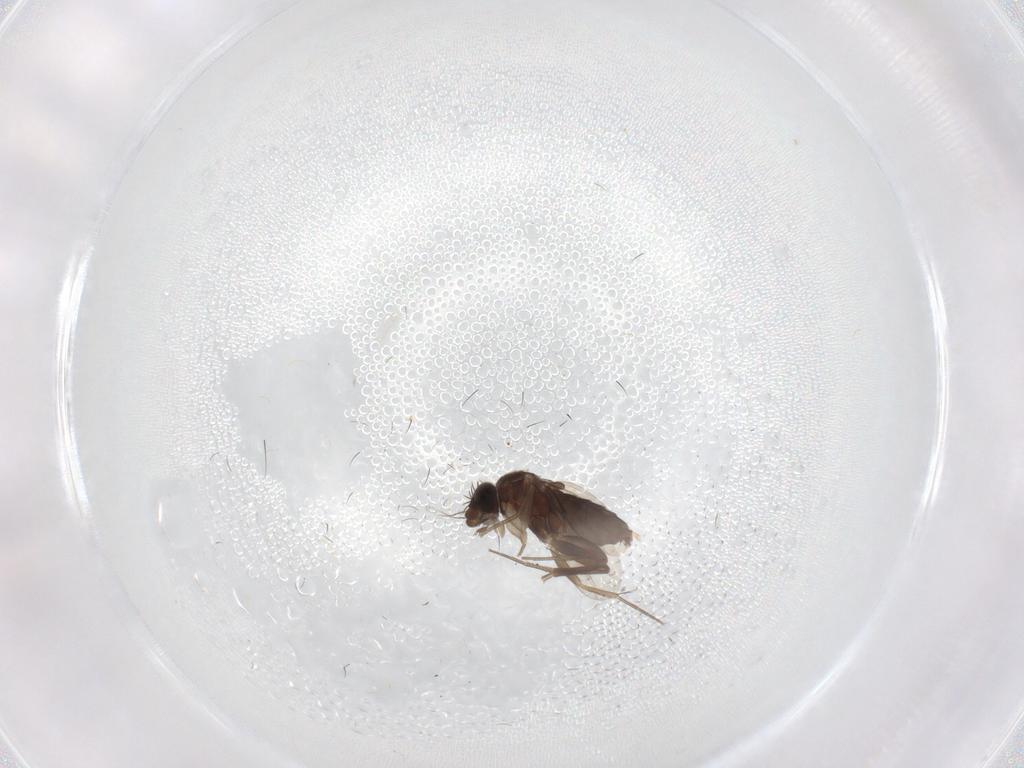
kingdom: Animalia
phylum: Arthropoda
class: Insecta
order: Diptera
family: Phoridae
